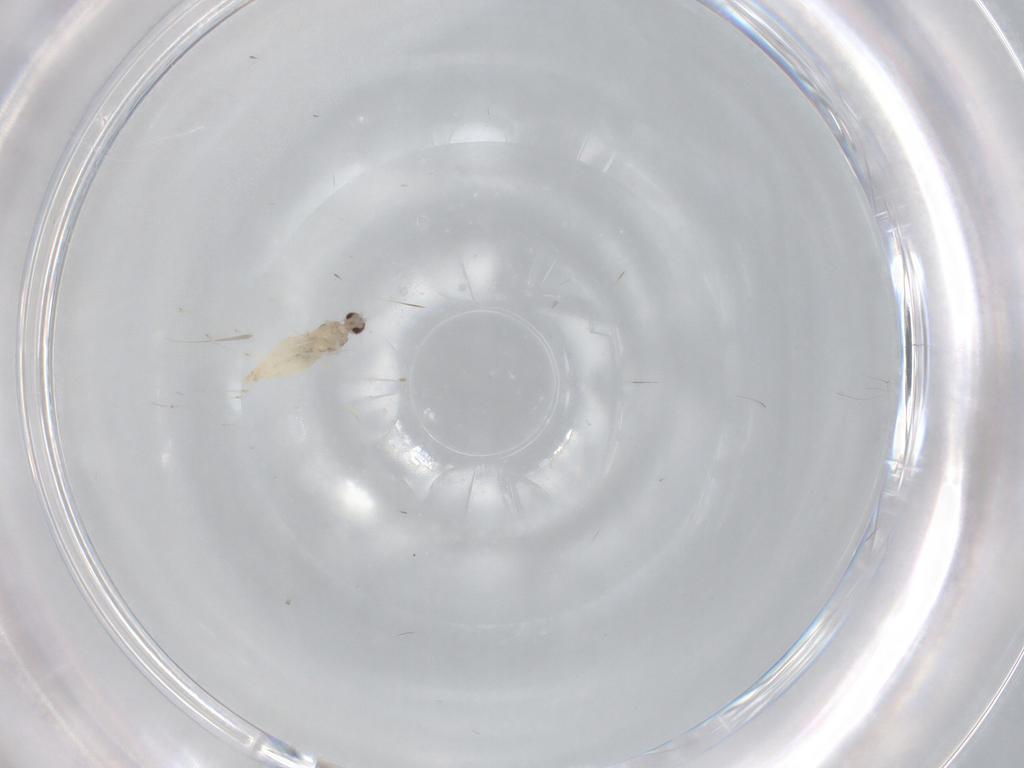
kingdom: Animalia
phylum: Arthropoda
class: Insecta
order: Diptera
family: Cecidomyiidae
